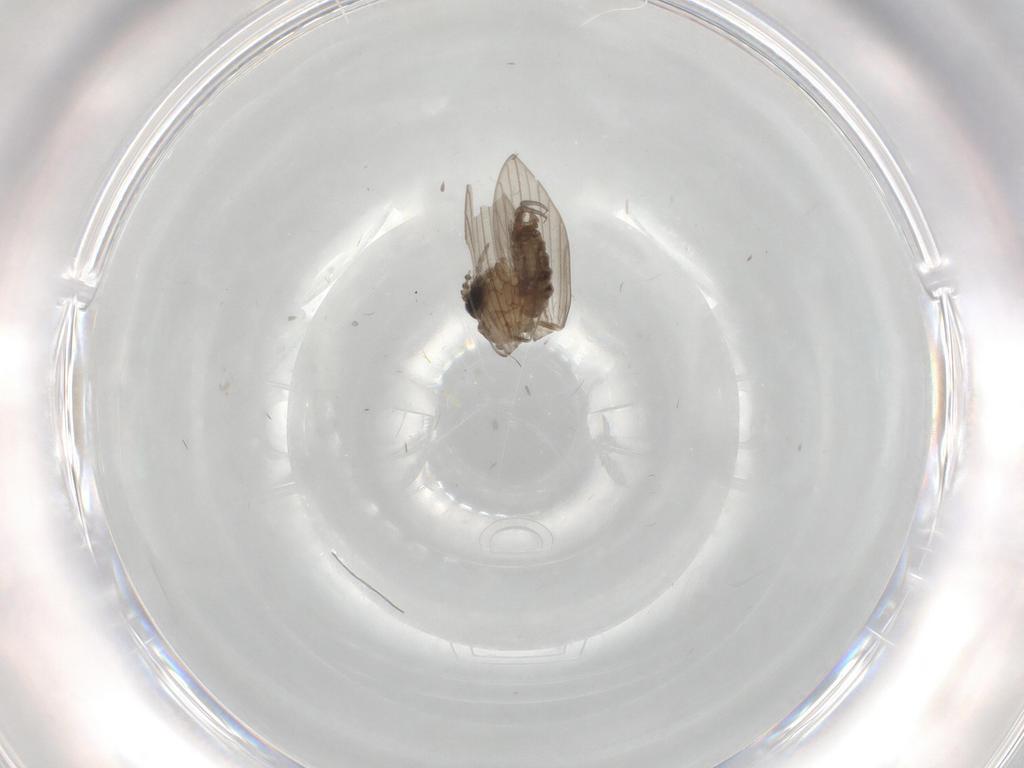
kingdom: Animalia
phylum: Arthropoda
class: Insecta
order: Diptera
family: Psychodidae
